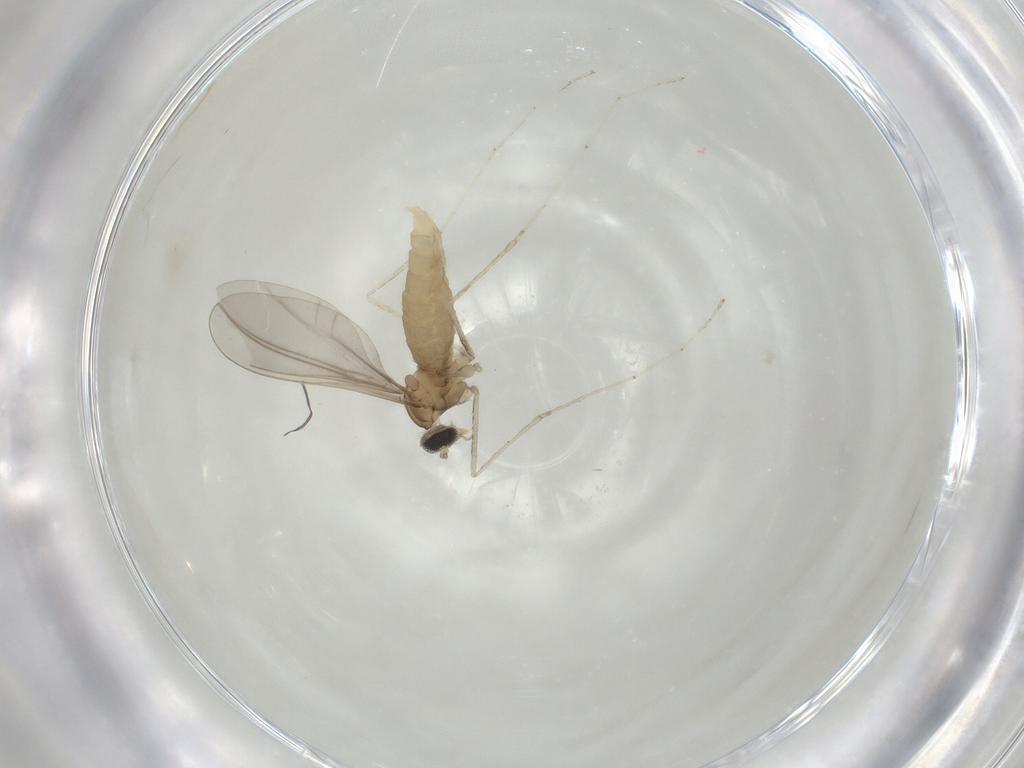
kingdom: Animalia
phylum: Arthropoda
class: Insecta
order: Diptera
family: Cecidomyiidae
